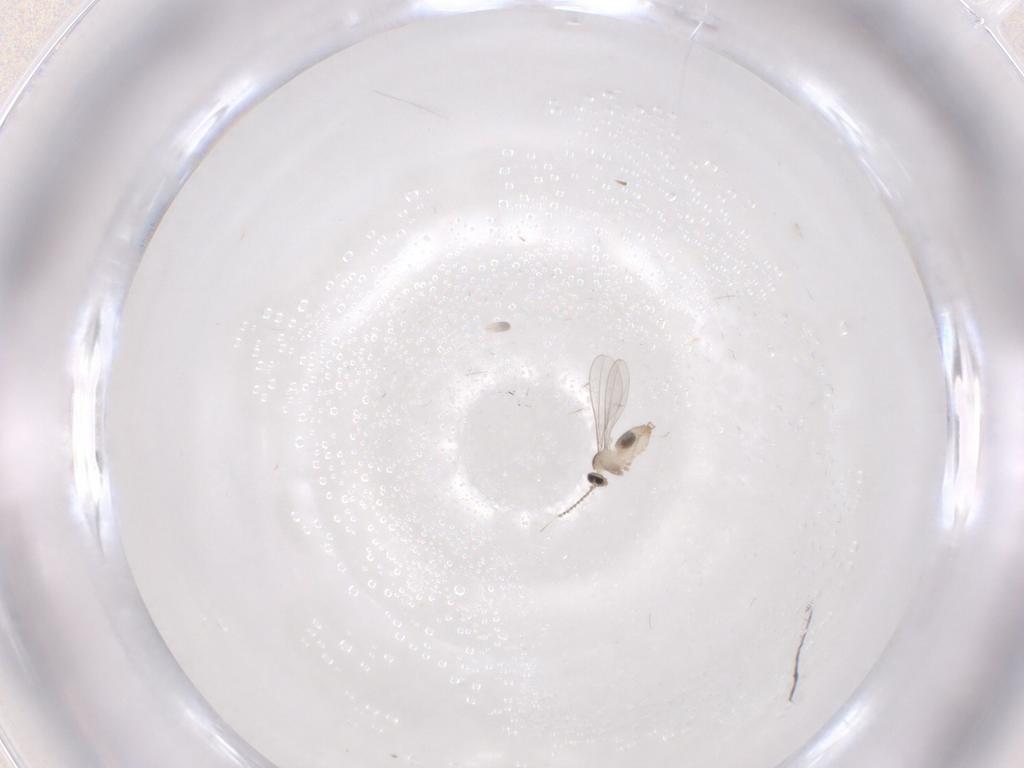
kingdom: Animalia
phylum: Arthropoda
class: Insecta
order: Diptera
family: Cecidomyiidae
